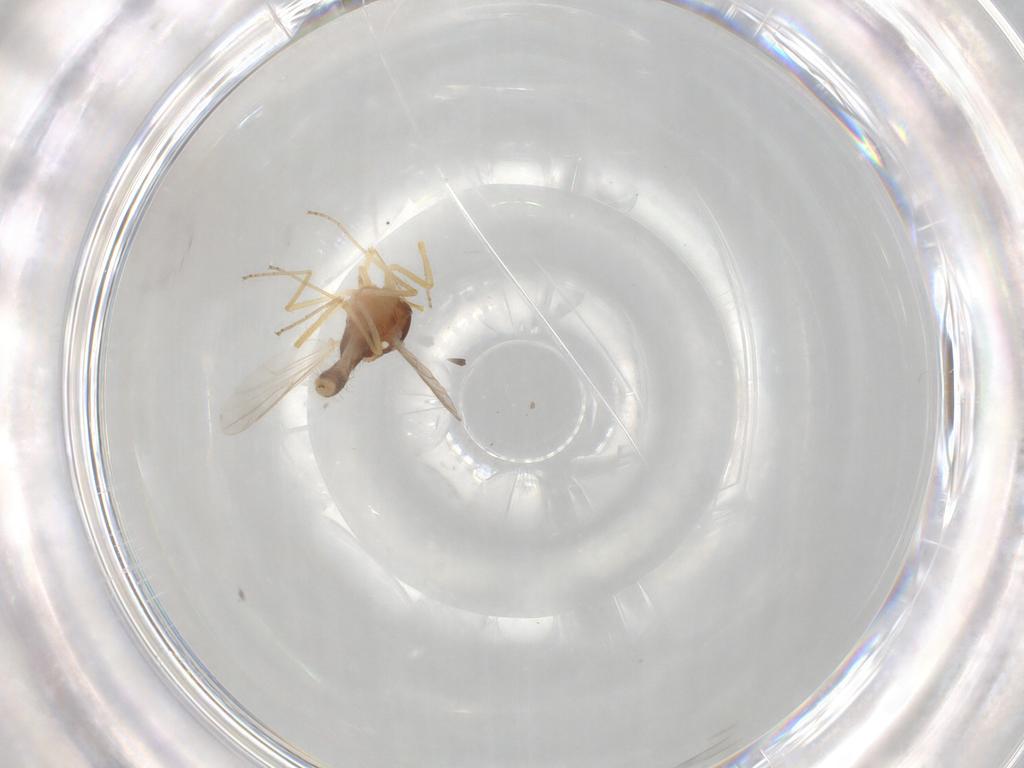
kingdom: Animalia
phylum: Arthropoda
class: Insecta
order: Diptera
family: Ceratopogonidae
